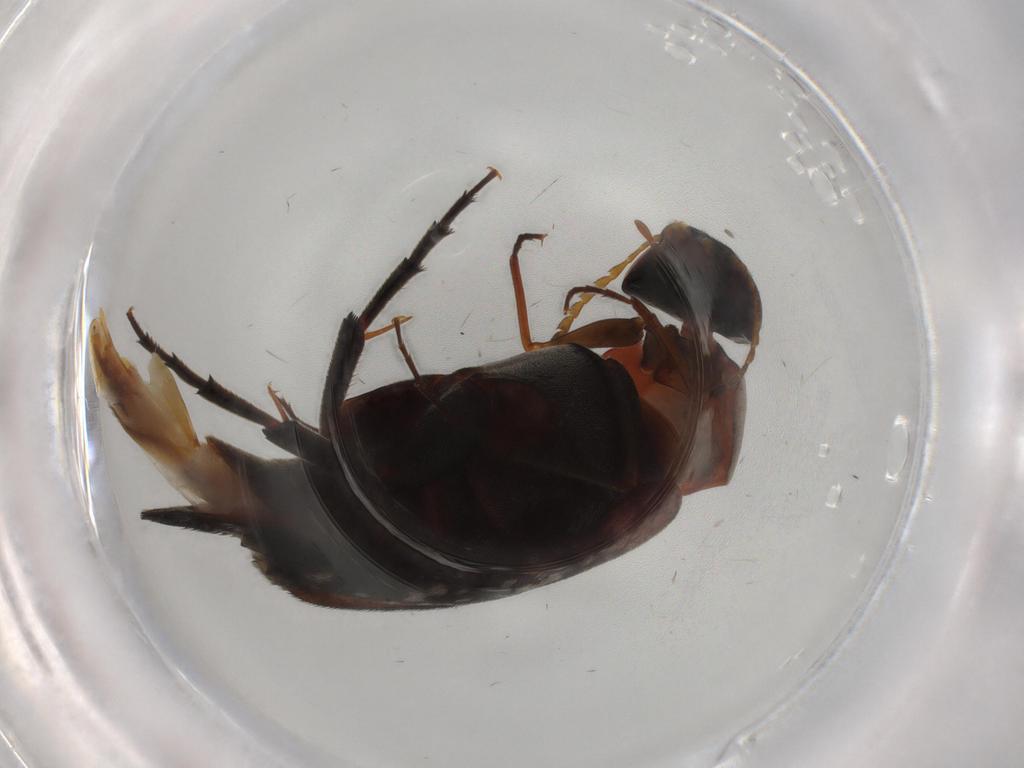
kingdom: Animalia
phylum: Arthropoda
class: Insecta
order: Coleoptera
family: Mordellidae
